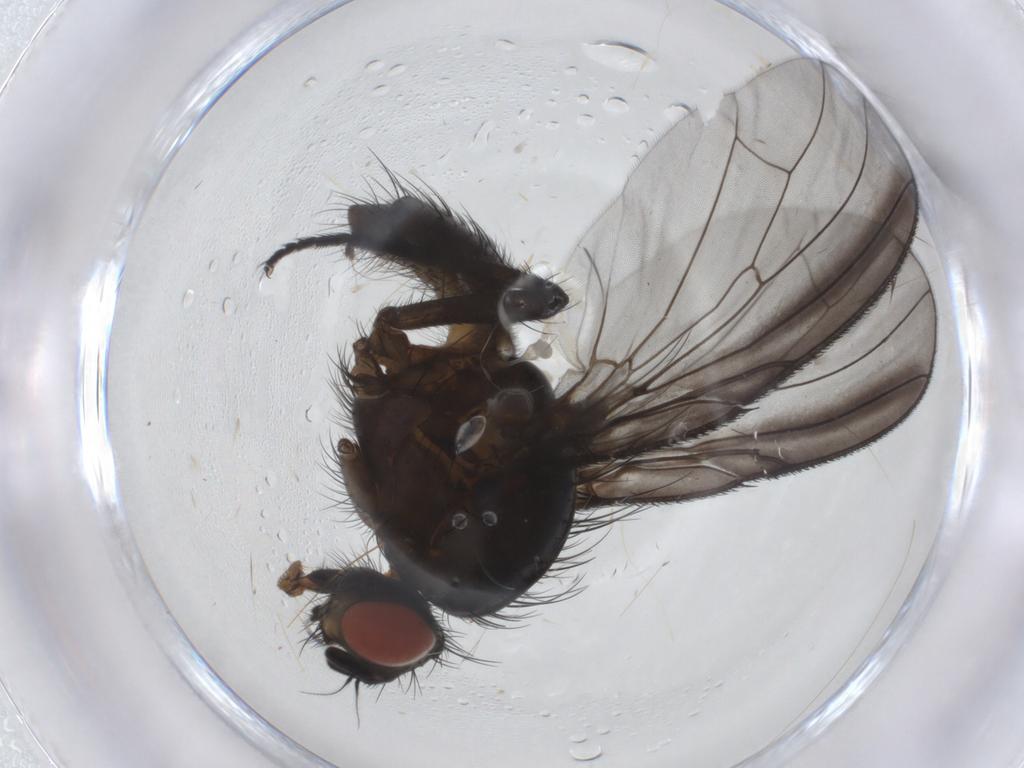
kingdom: Animalia
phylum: Arthropoda
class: Insecta
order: Diptera
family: Anthomyiidae
